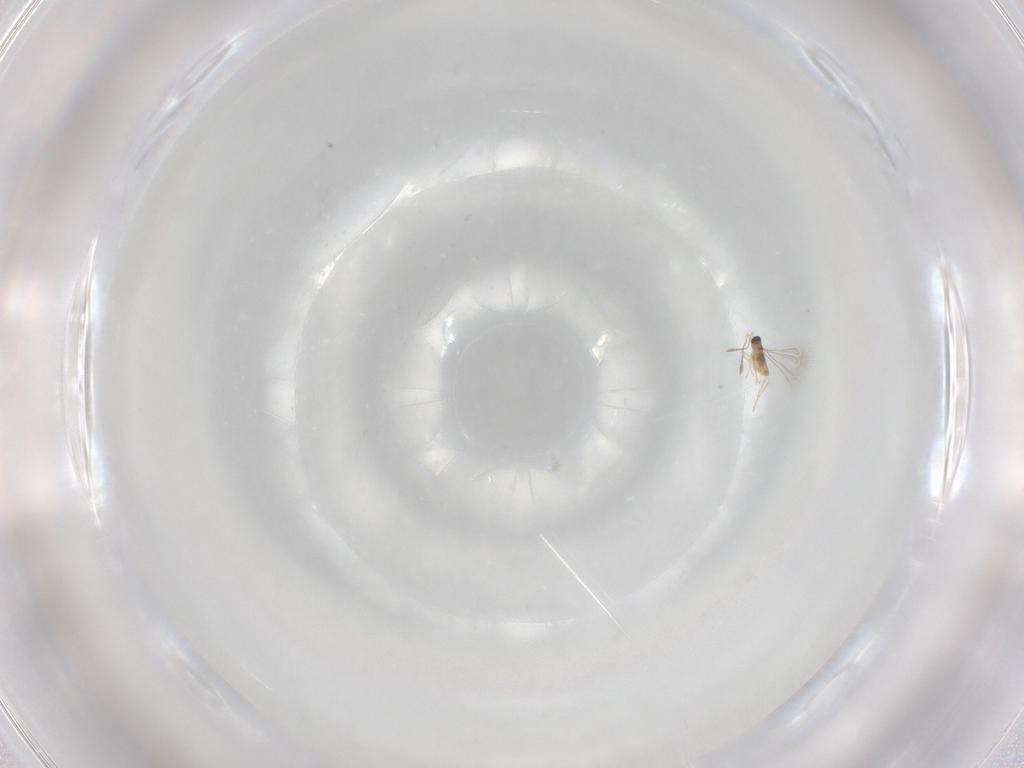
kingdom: Animalia
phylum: Arthropoda
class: Insecta
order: Hymenoptera
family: Mymaridae
